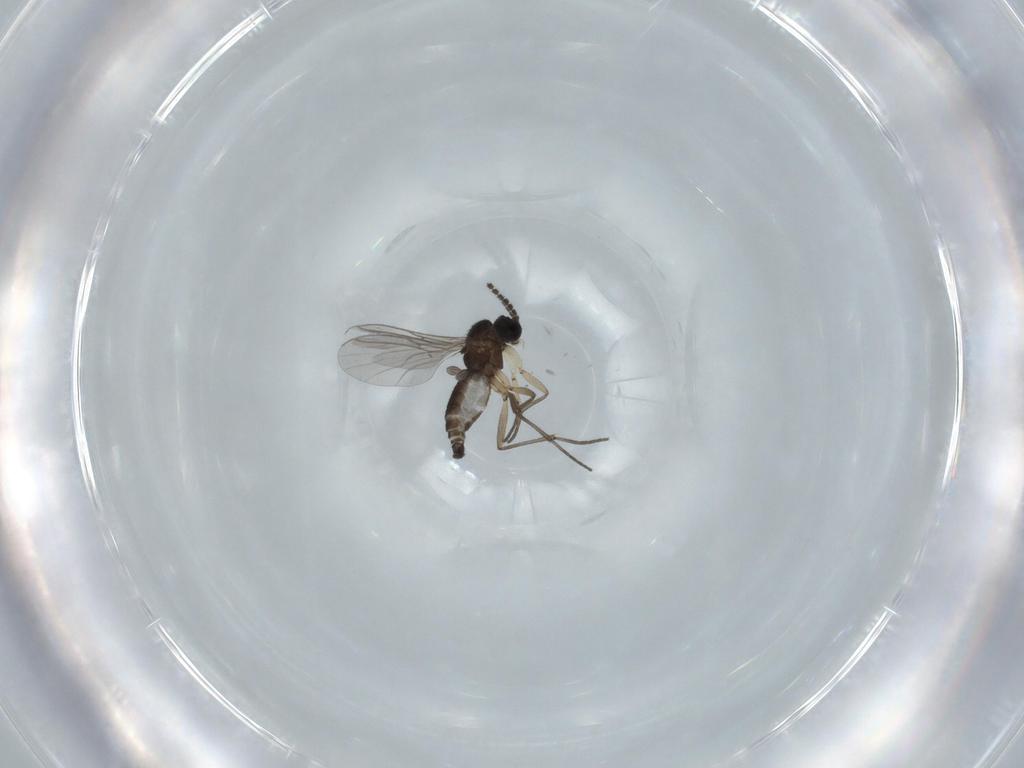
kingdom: Animalia
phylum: Arthropoda
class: Insecta
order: Diptera
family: Sciaridae
